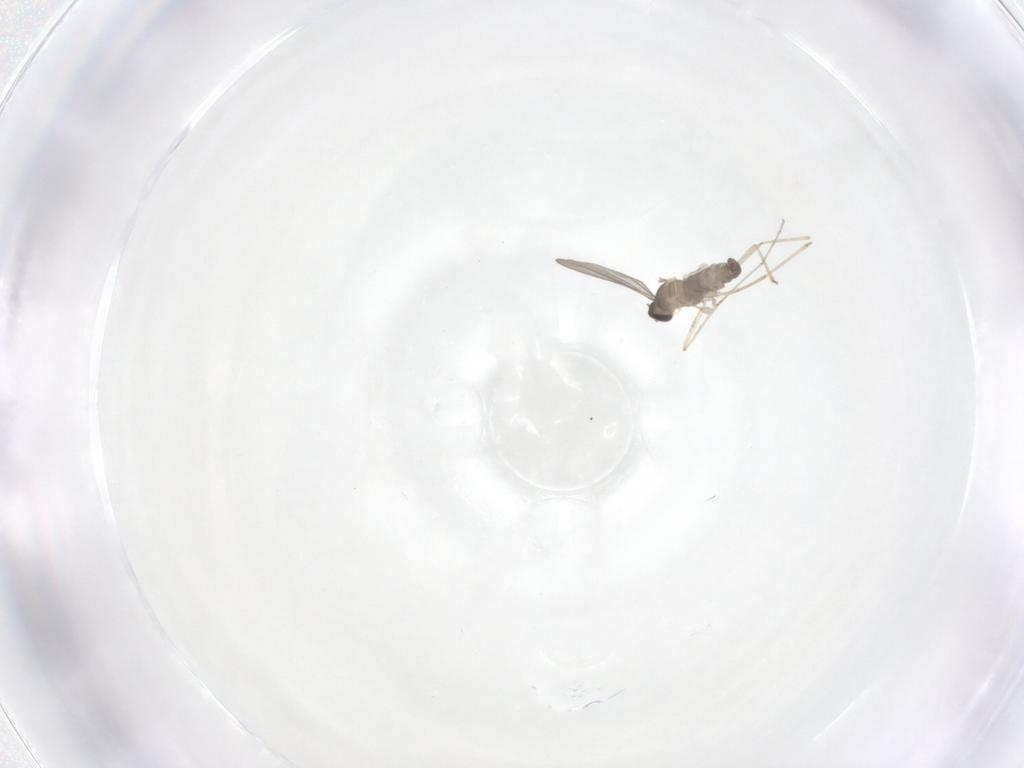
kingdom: Animalia
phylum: Arthropoda
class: Insecta
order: Diptera
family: Cecidomyiidae
